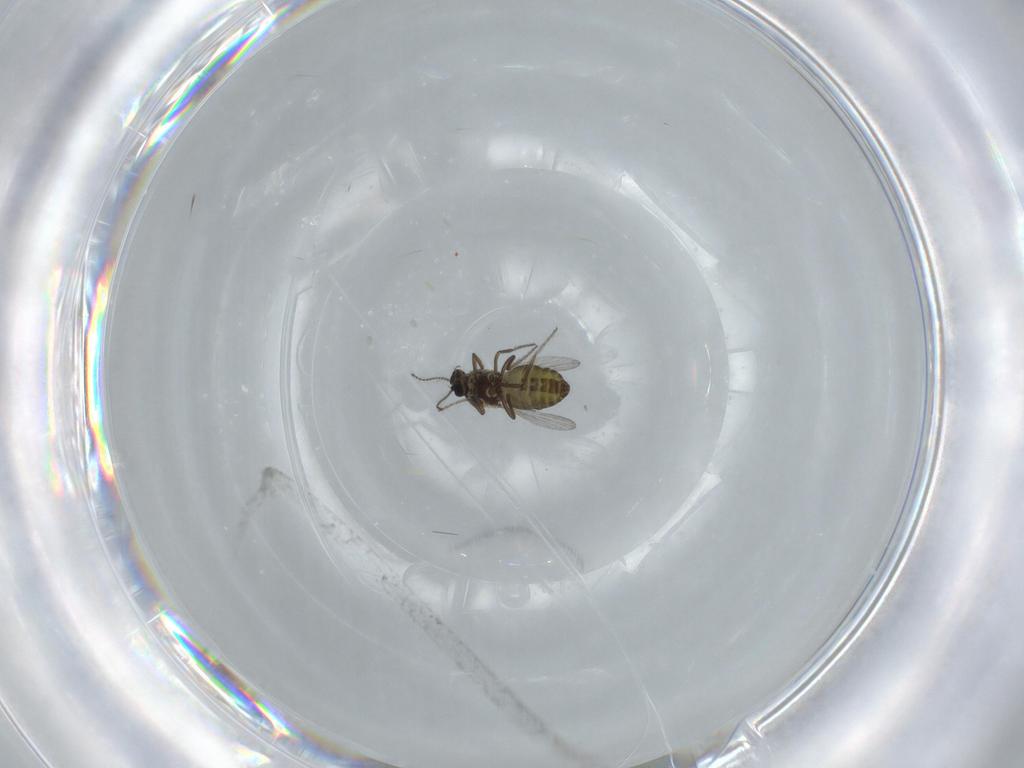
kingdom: Animalia
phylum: Arthropoda
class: Insecta
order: Diptera
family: Ceratopogonidae
